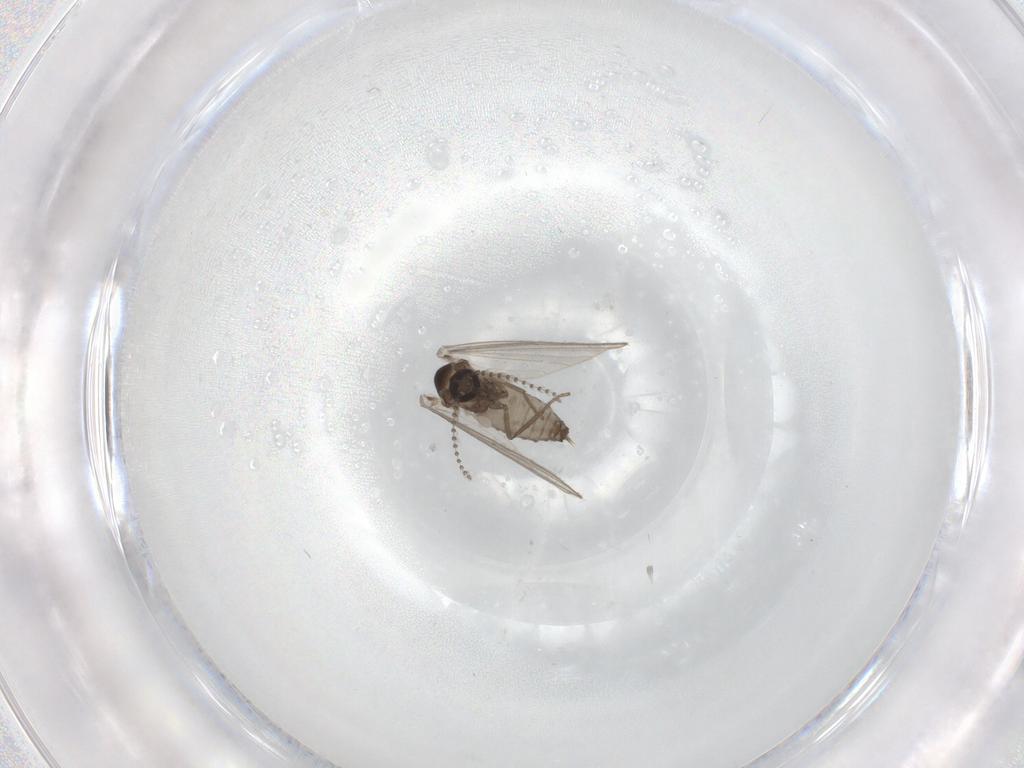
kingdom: Animalia
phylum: Arthropoda
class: Insecta
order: Diptera
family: Psychodidae
